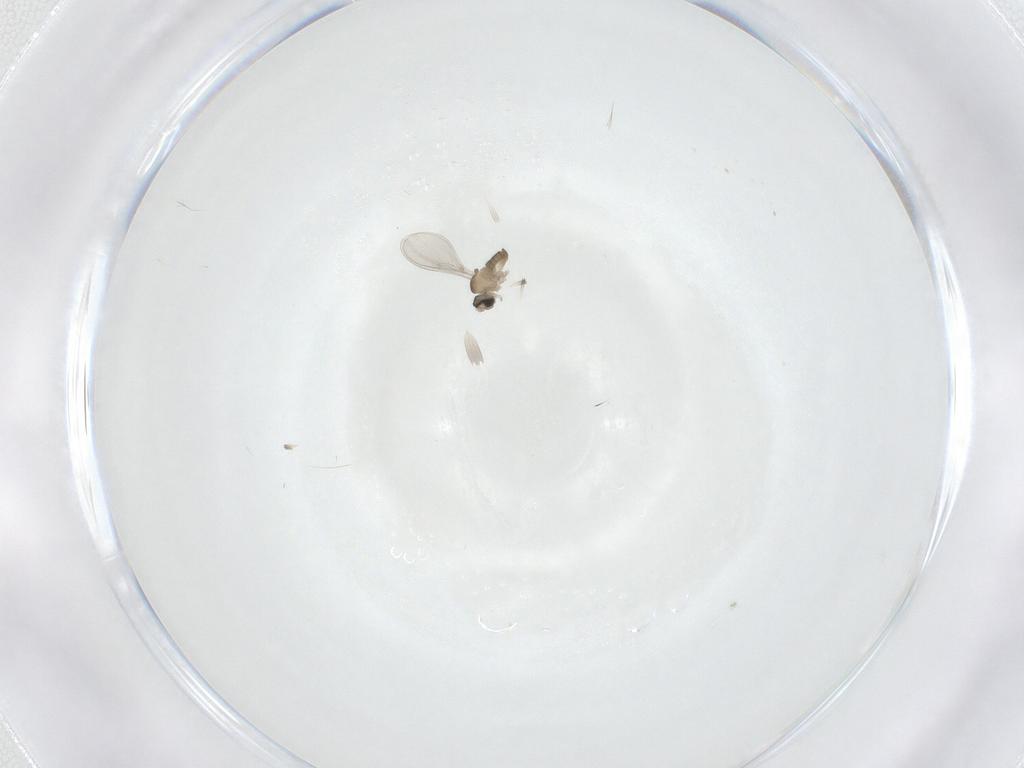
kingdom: Animalia
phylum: Arthropoda
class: Insecta
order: Diptera
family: Cecidomyiidae
